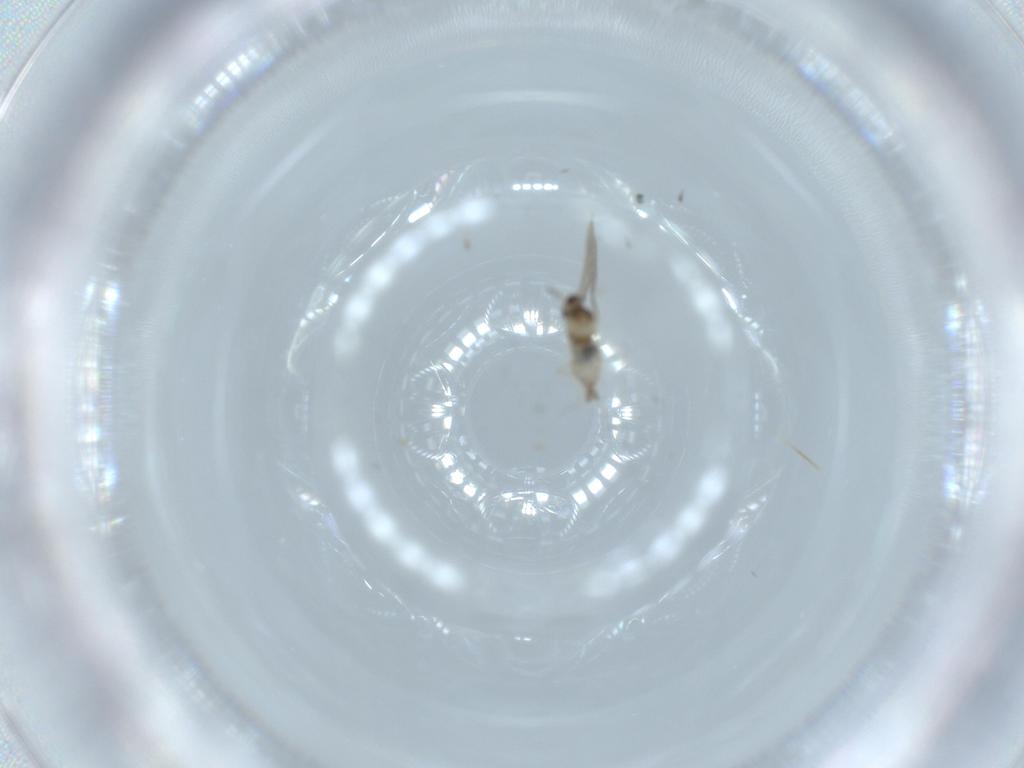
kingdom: Animalia
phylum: Arthropoda
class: Insecta
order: Diptera
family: Cecidomyiidae
